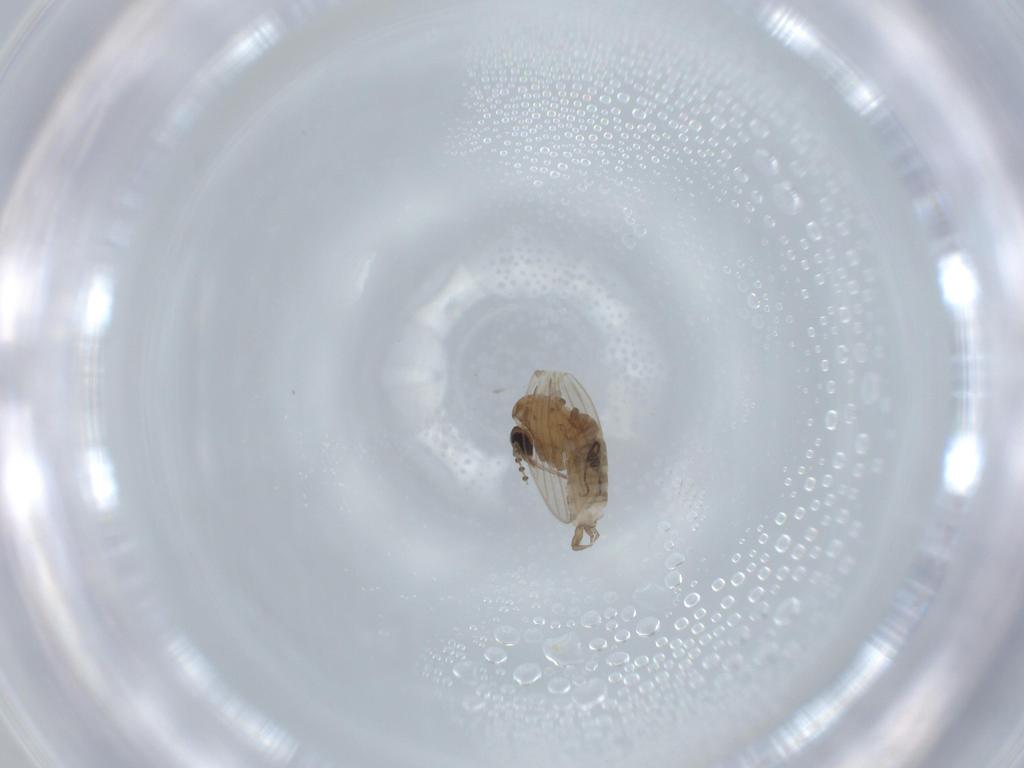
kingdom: Animalia
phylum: Arthropoda
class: Insecta
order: Diptera
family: Psychodidae
